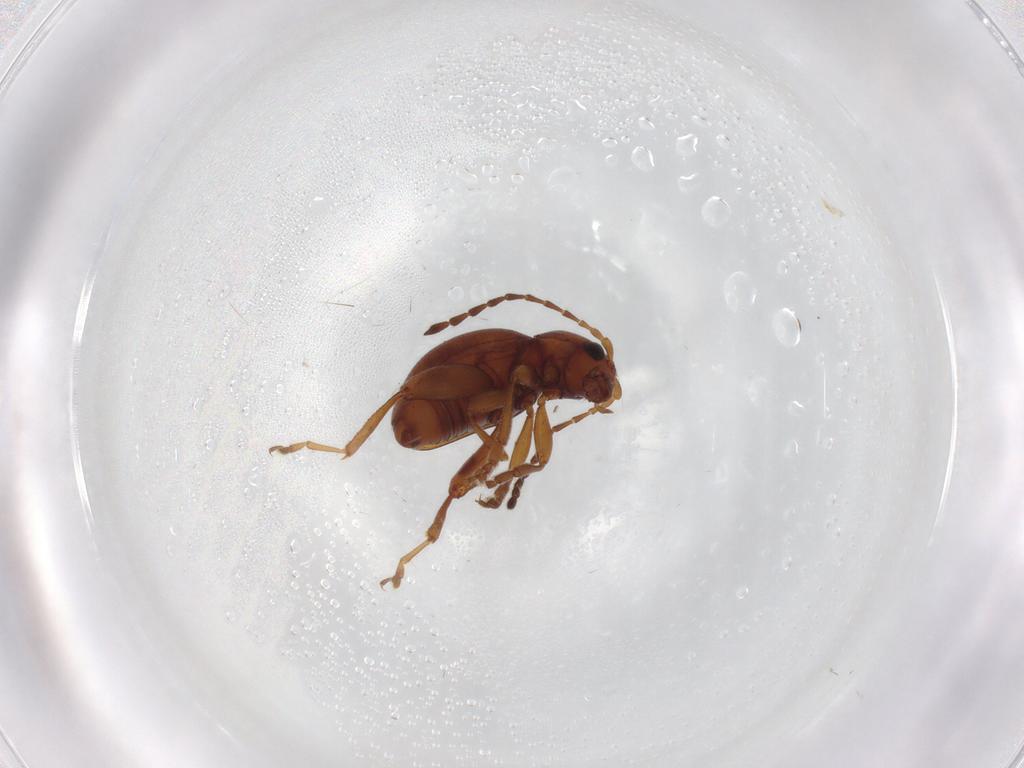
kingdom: Animalia
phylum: Arthropoda
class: Insecta
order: Coleoptera
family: Chrysomelidae
